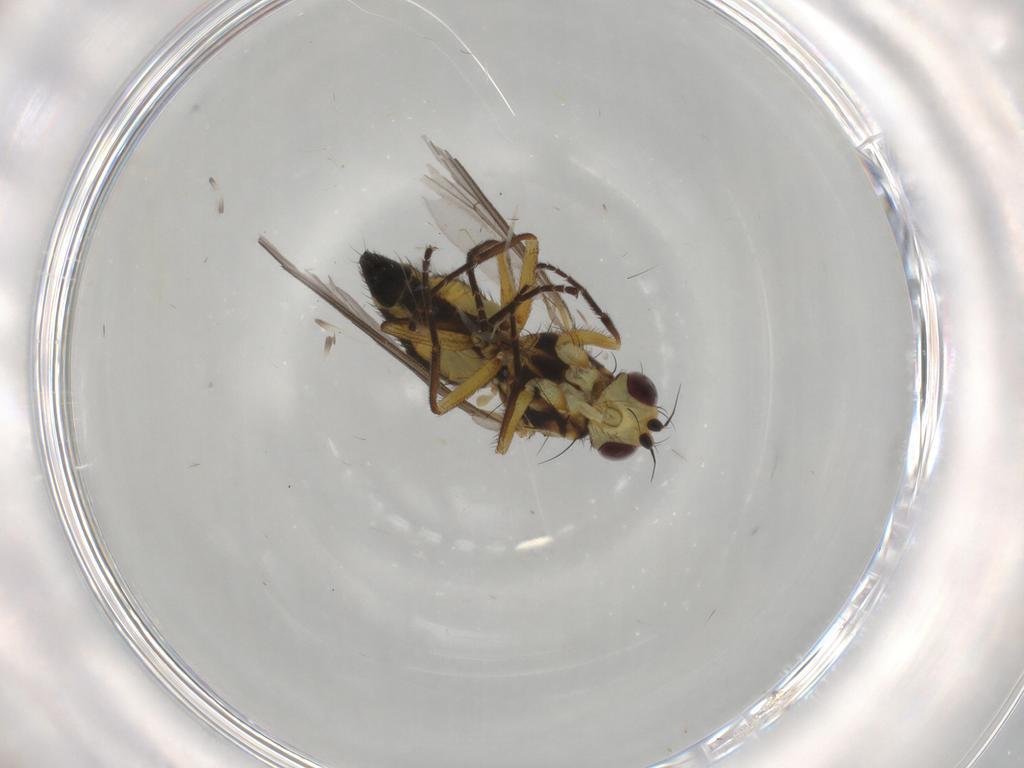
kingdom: Animalia
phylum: Arthropoda
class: Insecta
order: Diptera
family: Agromyzidae
